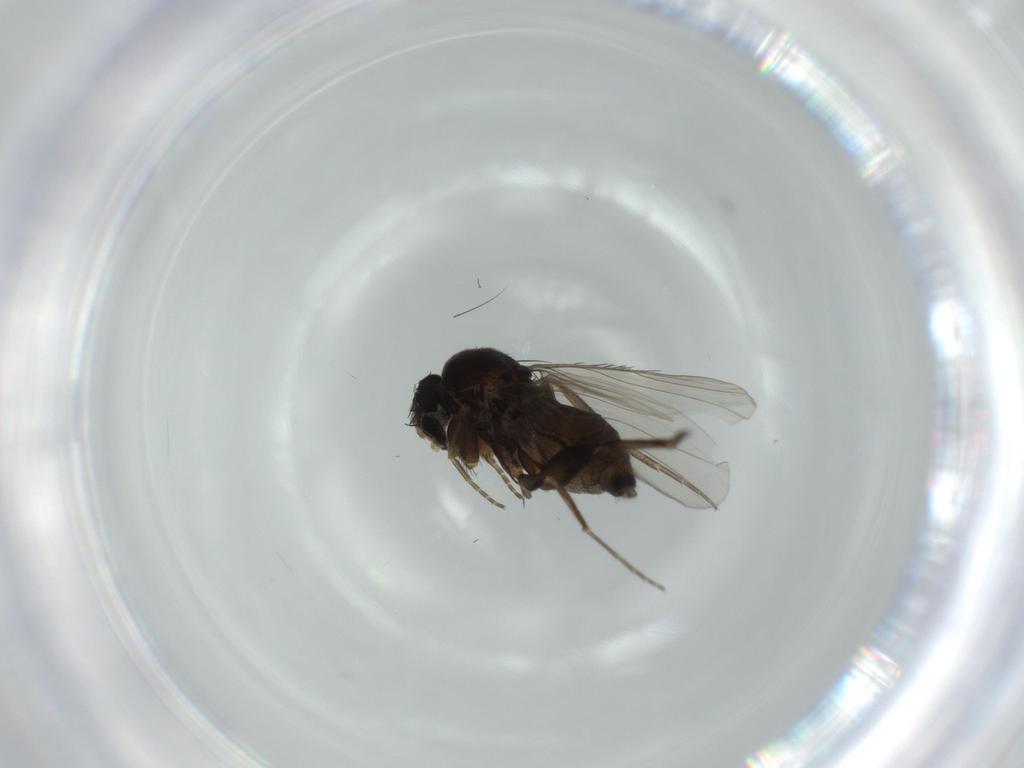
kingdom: Animalia
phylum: Arthropoda
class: Insecta
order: Diptera
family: Phoridae
